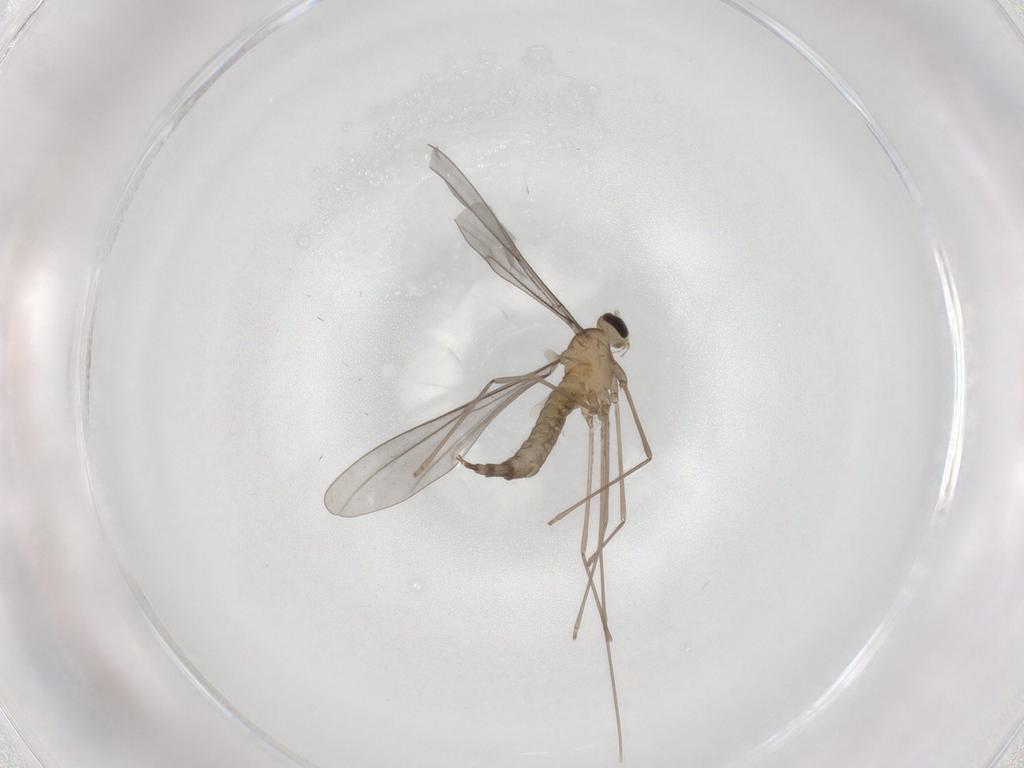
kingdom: Animalia
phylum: Arthropoda
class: Insecta
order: Diptera
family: Cecidomyiidae
